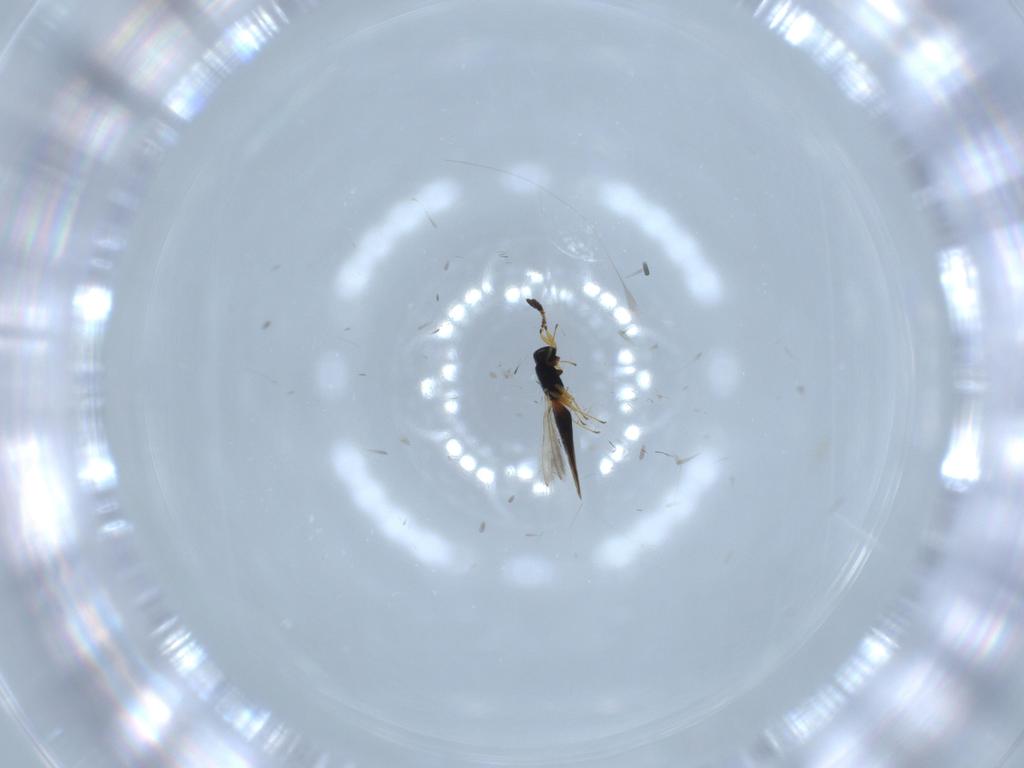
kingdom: Animalia
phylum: Arthropoda
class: Insecta
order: Hymenoptera
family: Scelionidae
